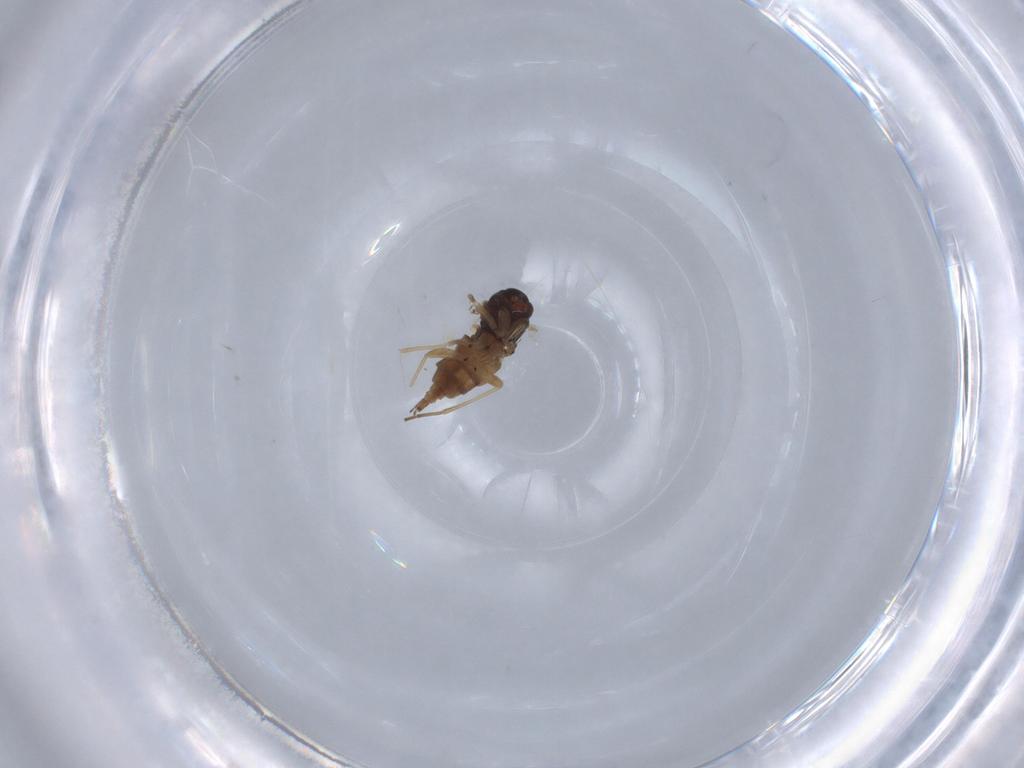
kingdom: Animalia
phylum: Arthropoda
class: Insecta
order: Diptera
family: Sciaridae
